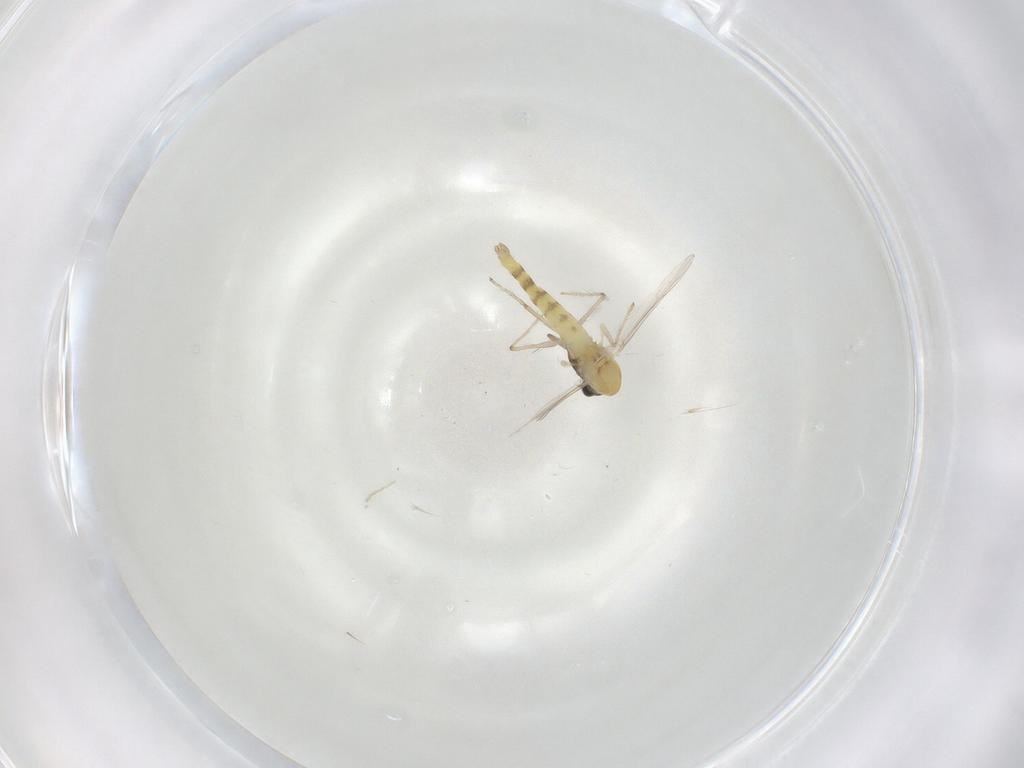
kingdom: Animalia
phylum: Arthropoda
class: Insecta
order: Diptera
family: Chironomidae
